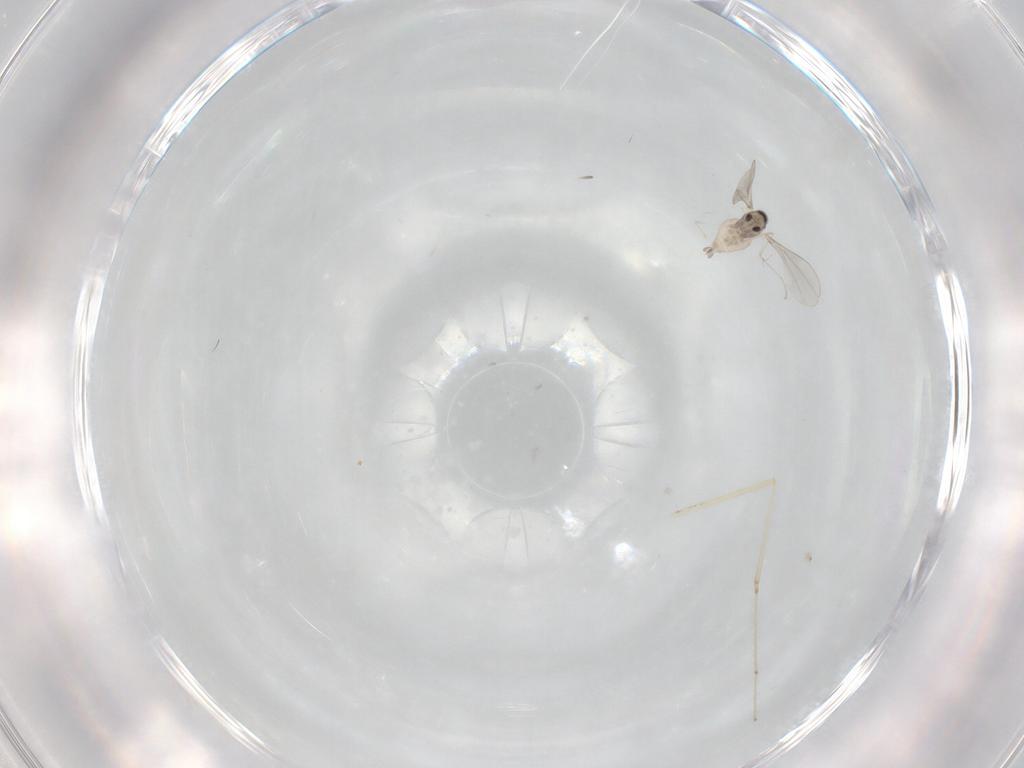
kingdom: Animalia
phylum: Arthropoda
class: Insecta
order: Diptera
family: Cecidomyiidae
